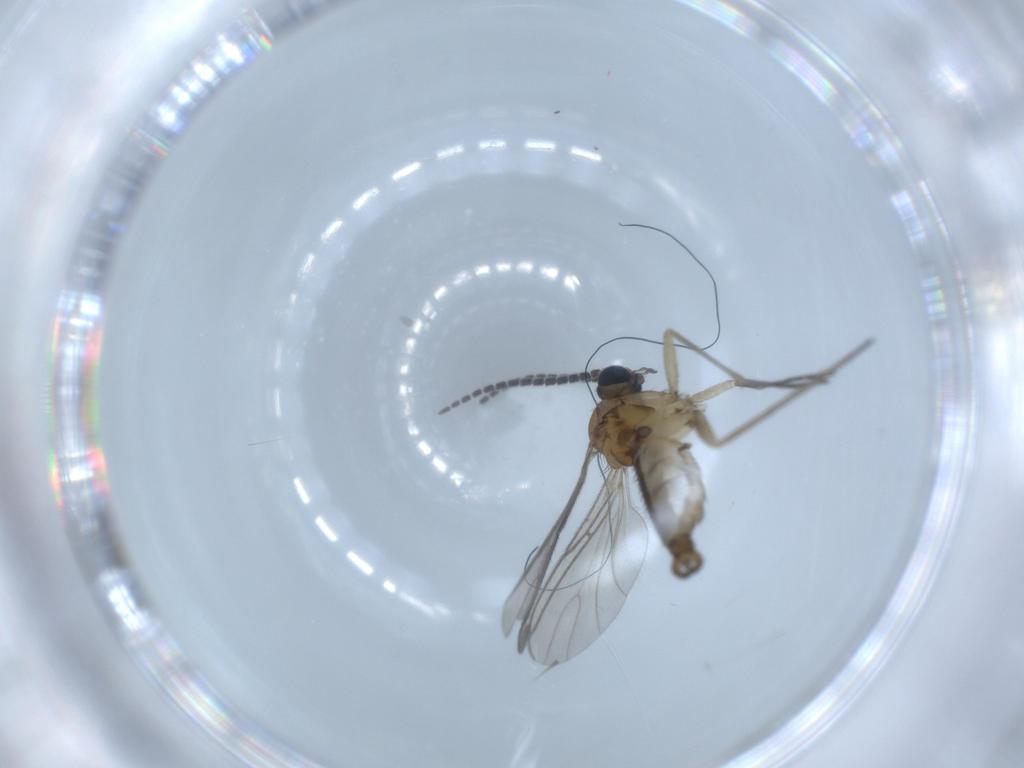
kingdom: Animalia
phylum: Arthropoda
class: Insecta
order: Diptera
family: Sciaridae
